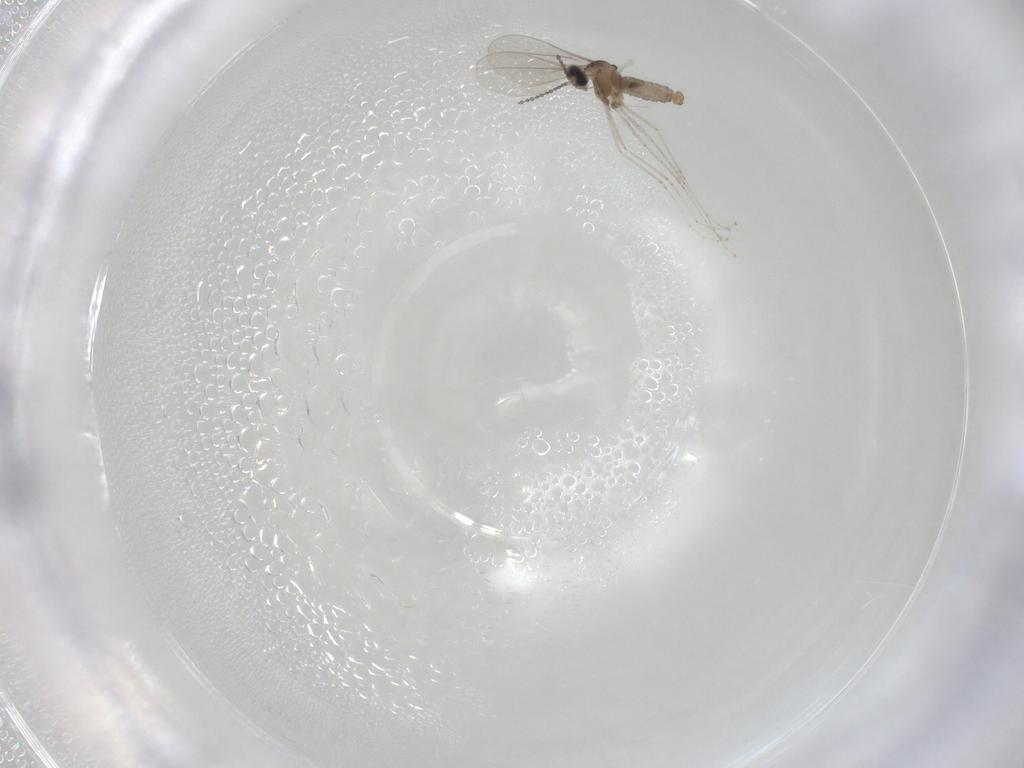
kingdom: Animalia
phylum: Arthropoda
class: Insecta
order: Diptera
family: Cecidomyiidae
